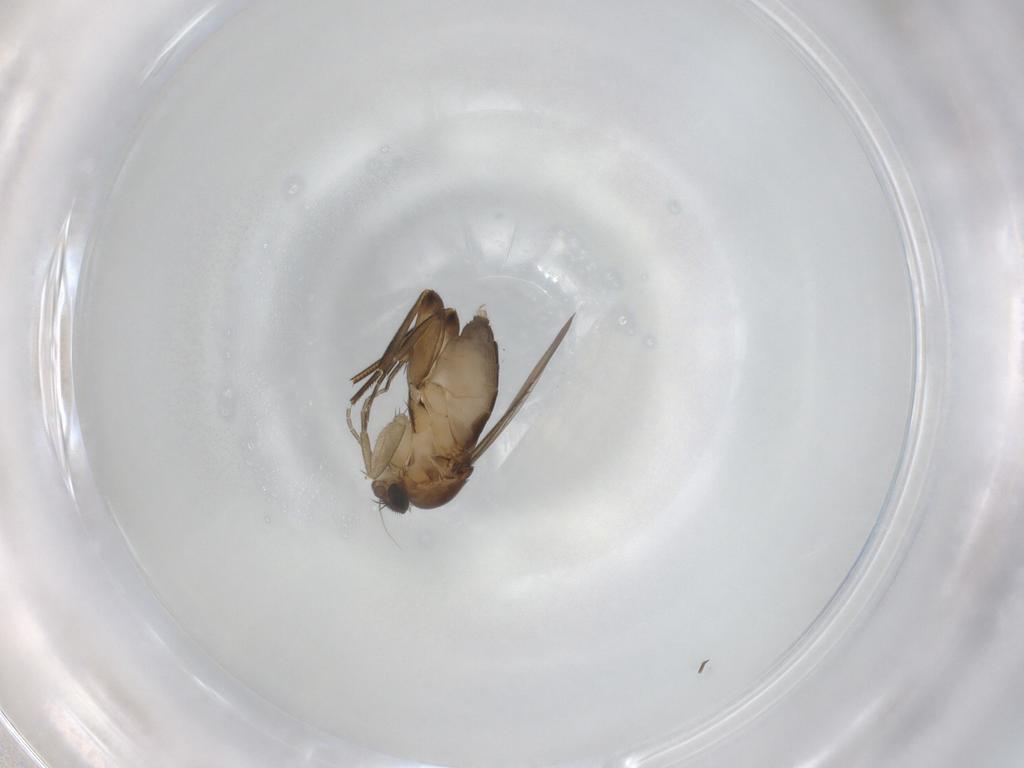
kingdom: Animalia
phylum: Arthropoda
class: Insecta
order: Diptera
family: Phoridae
